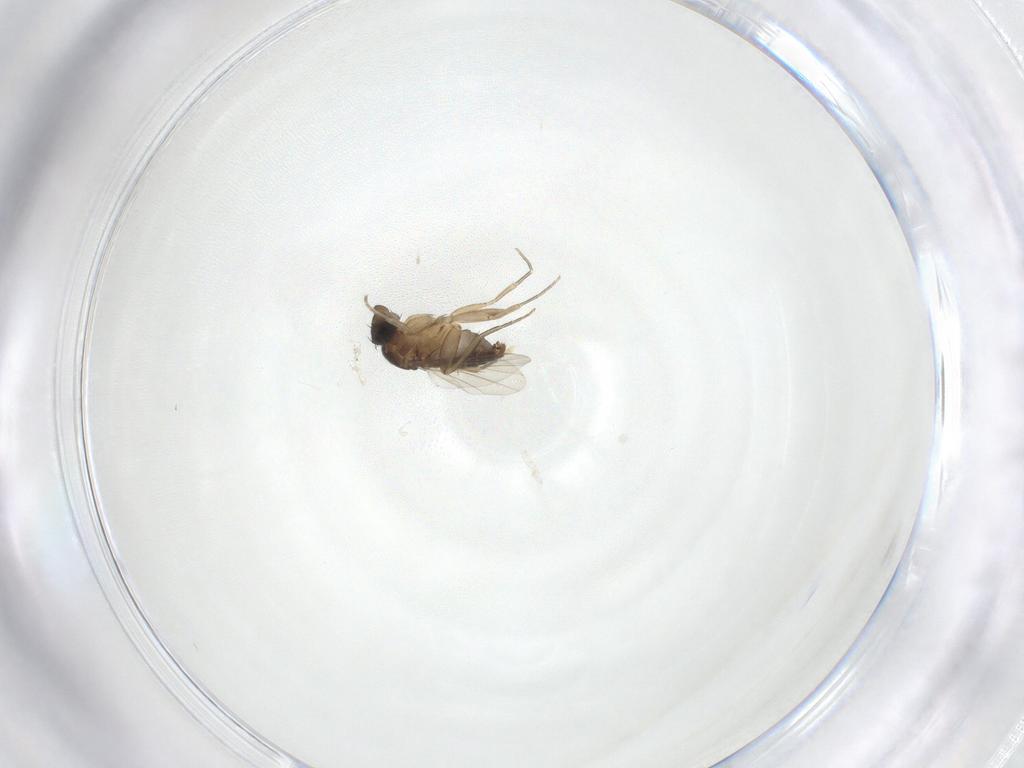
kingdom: Animalia
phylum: Arthropoda
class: Insecta
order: Diptera
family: Phoridae
